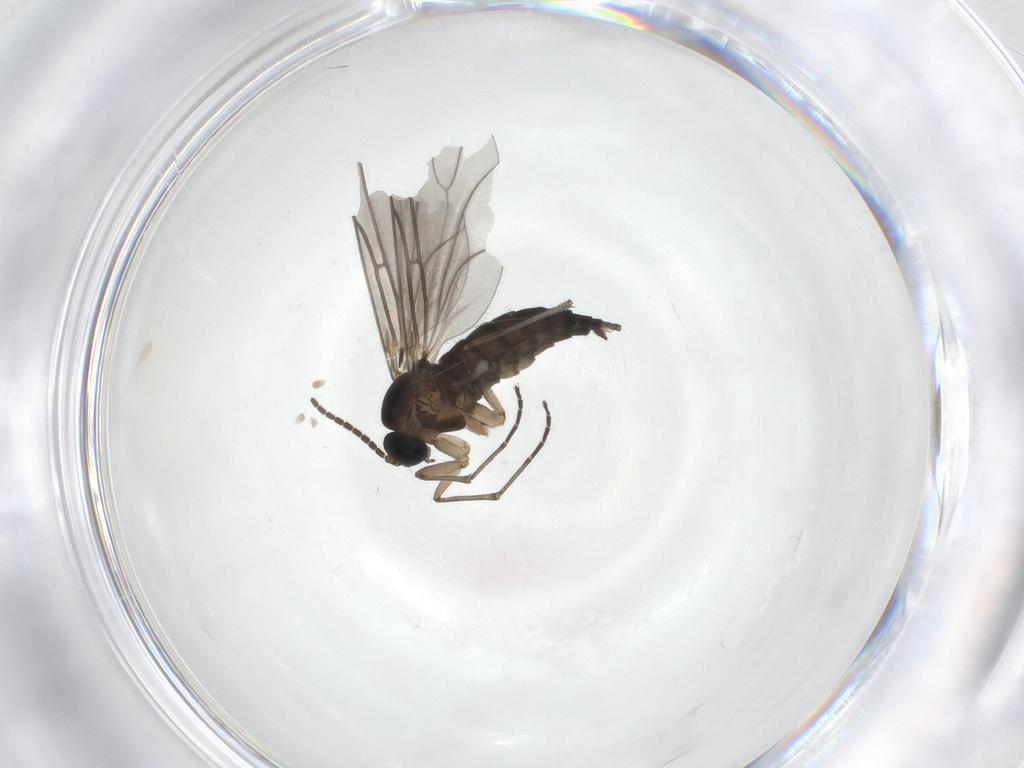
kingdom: Animalia
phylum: Arthropoda
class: Insecta
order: Diptera
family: Sciaridae
